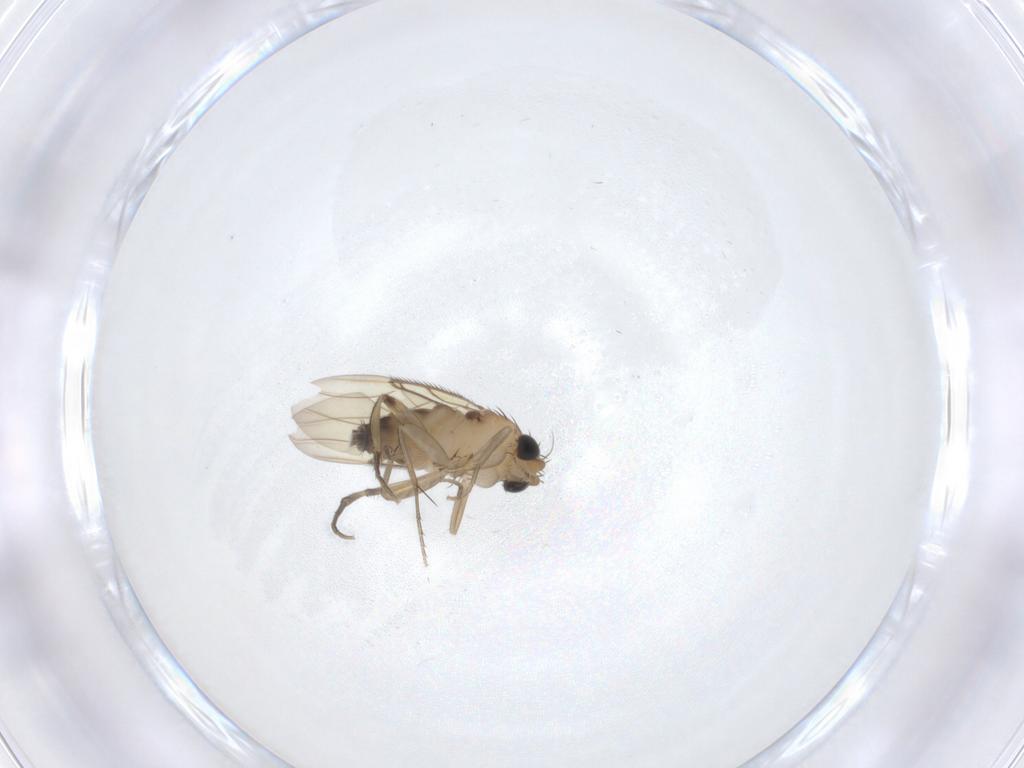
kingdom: Animalia
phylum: Arthropoda
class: Insecta
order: Diptera
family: Phoridae
